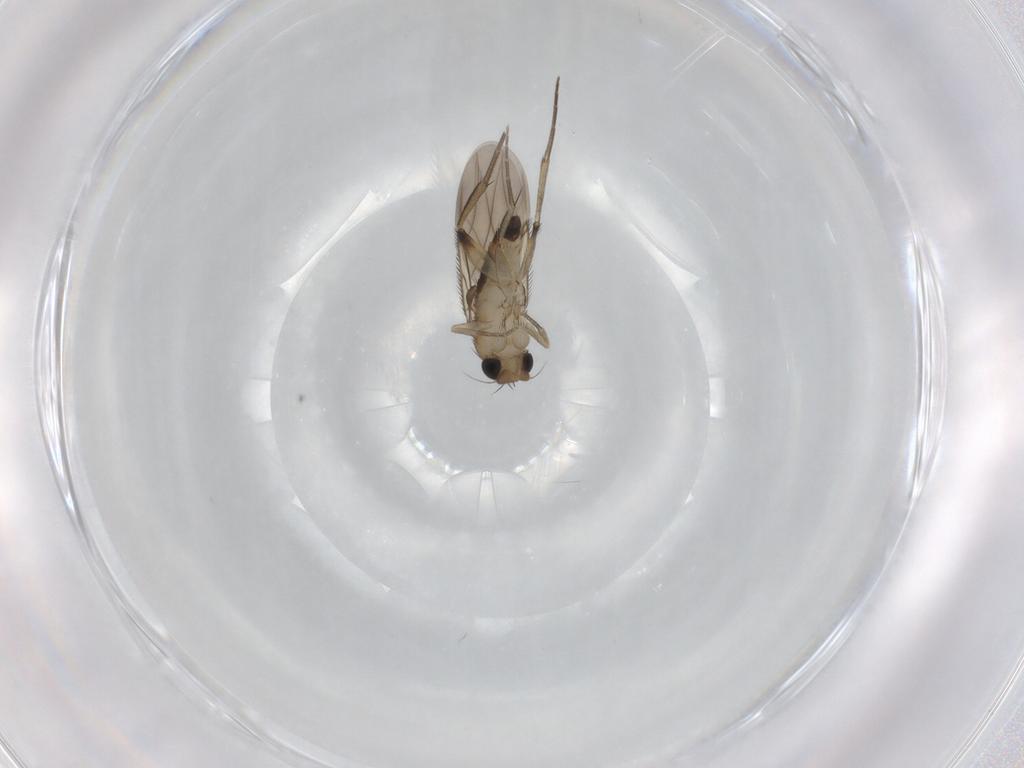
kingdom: Animalia
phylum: Arthropoda
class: Insecta
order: Diptera
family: Phoridae
